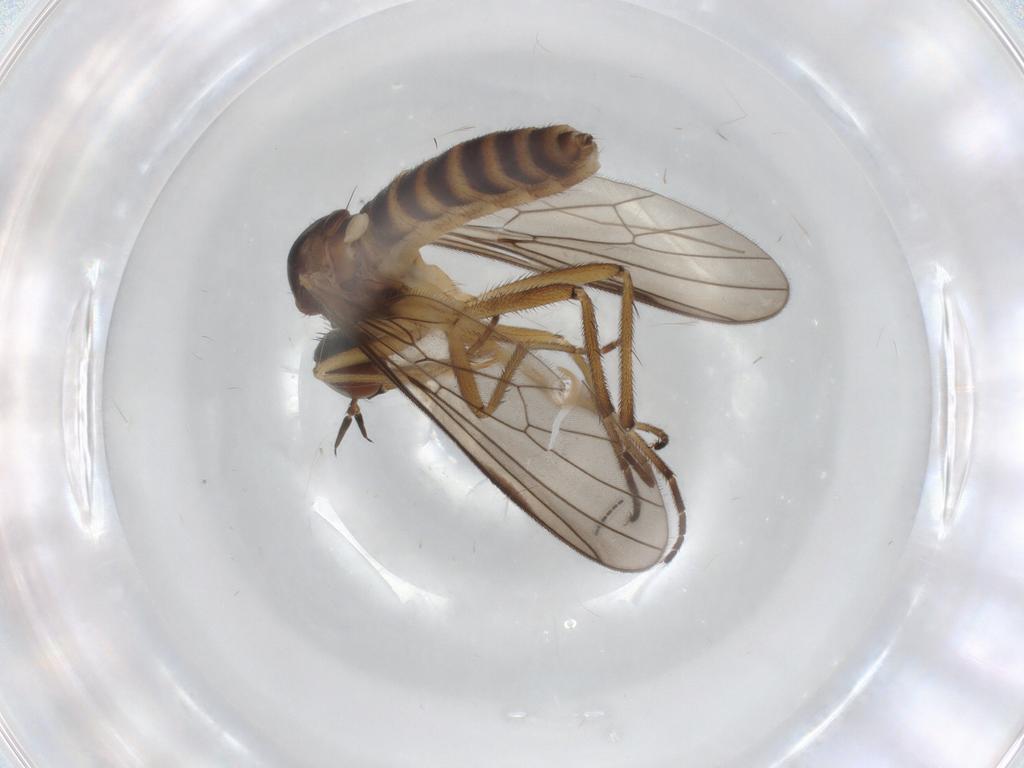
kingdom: Animalia
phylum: Arthropoda
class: Insecta
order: Diptera
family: Empididae
